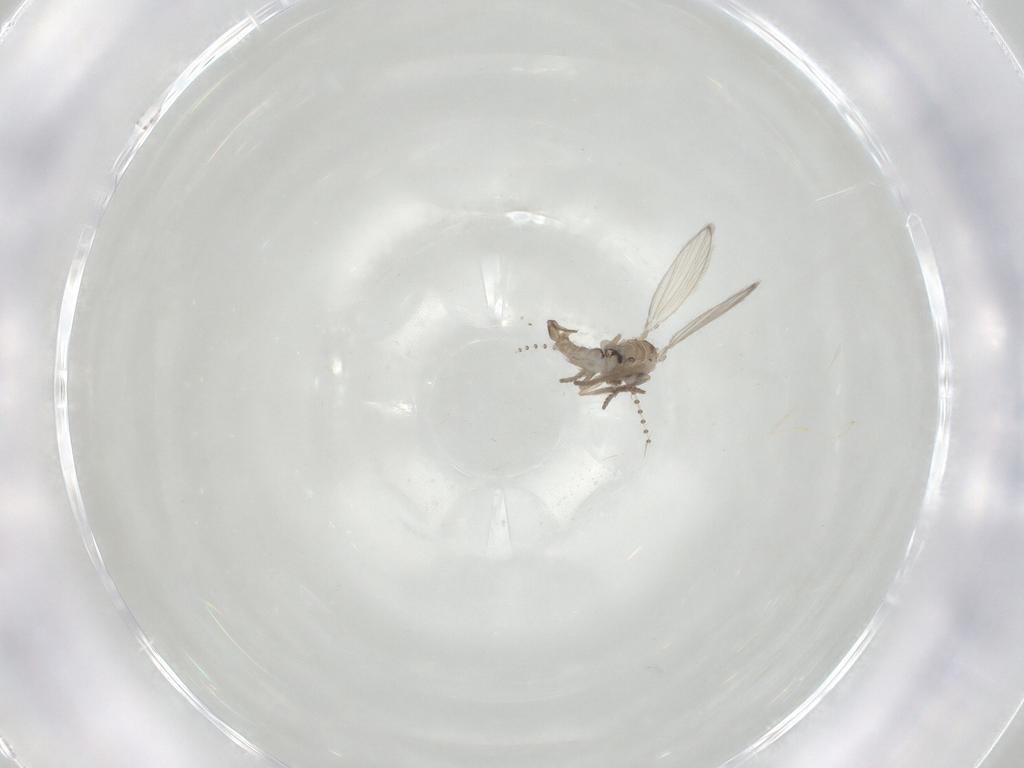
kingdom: Animalia
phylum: Arthropoda
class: Insecta
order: Diptera
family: Psychodidae
